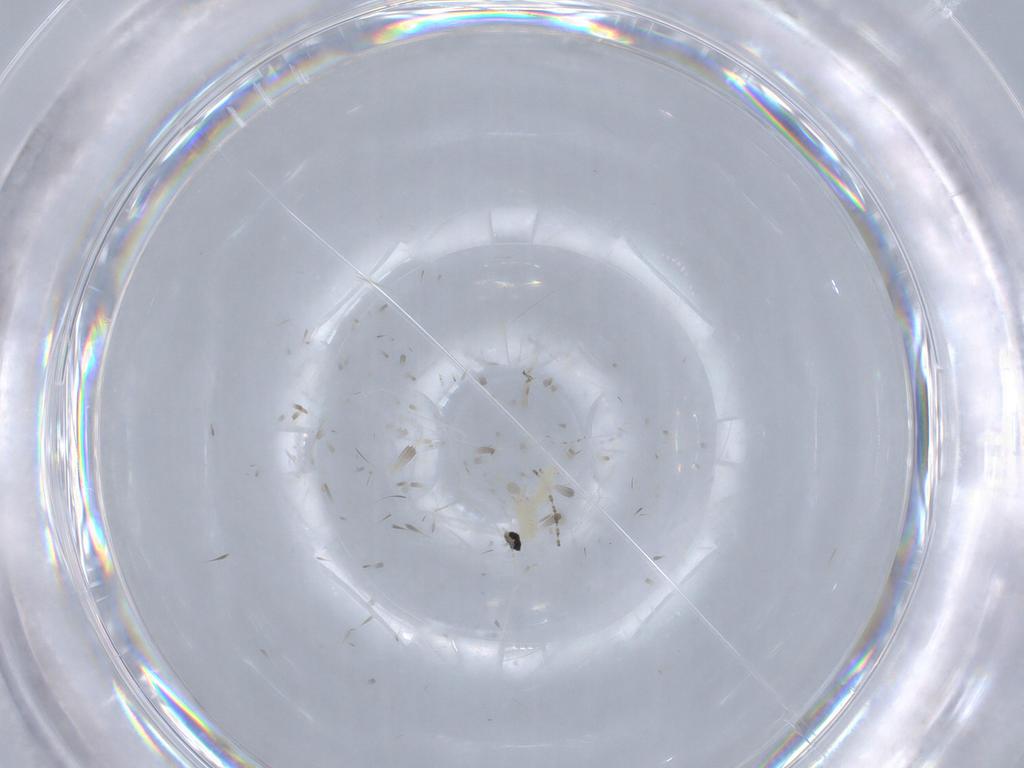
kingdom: Animalia
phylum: Arthropoda
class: Insecta
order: Diptera
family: Cecidomyiidae
